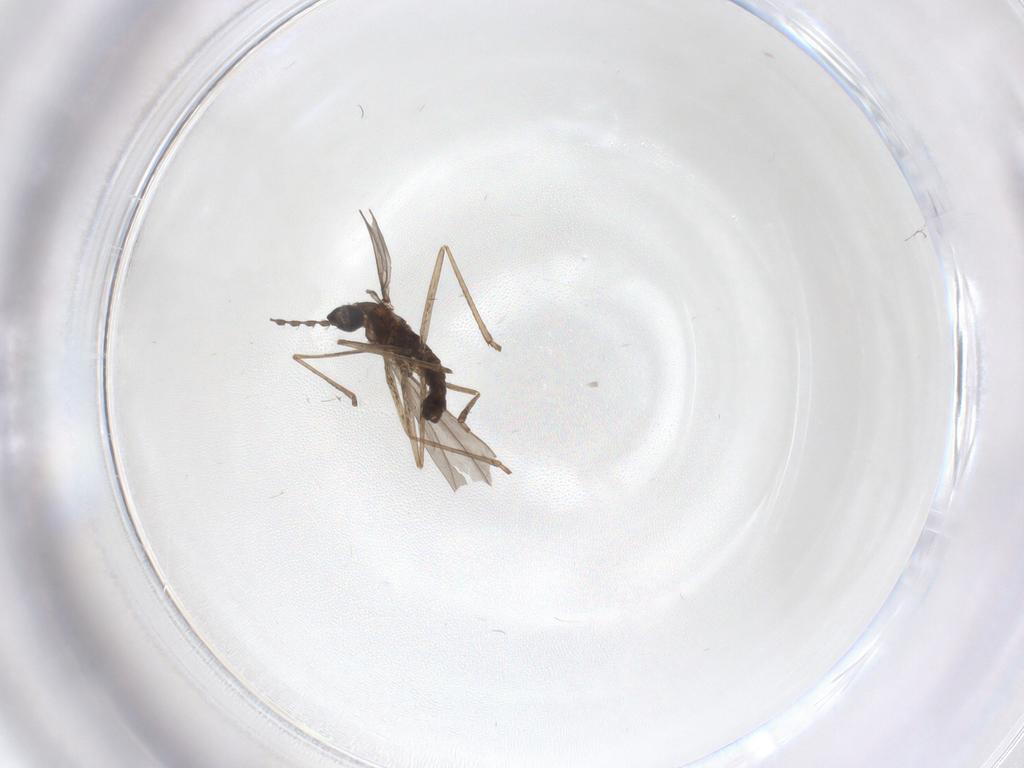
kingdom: Animalia
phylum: Arthropoda
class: Insecta
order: Diptera
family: Cecidomyiidae
